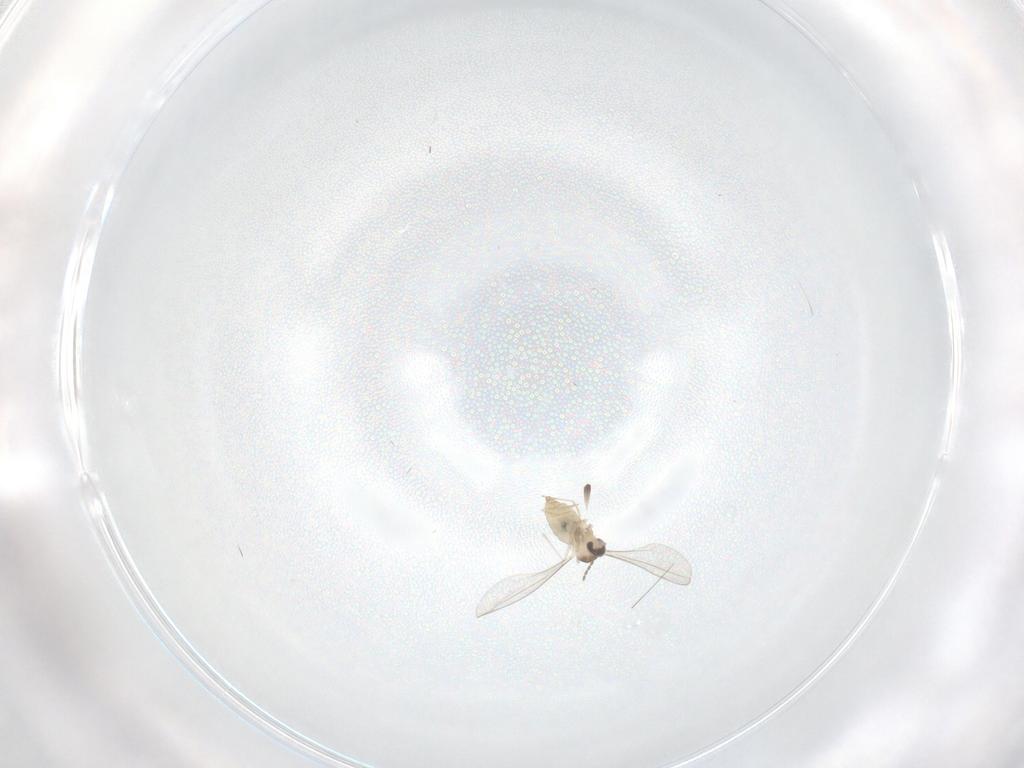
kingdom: Animalia
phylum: Arthropoda
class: Insecta
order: Diptera
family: Cecidomyiidae
